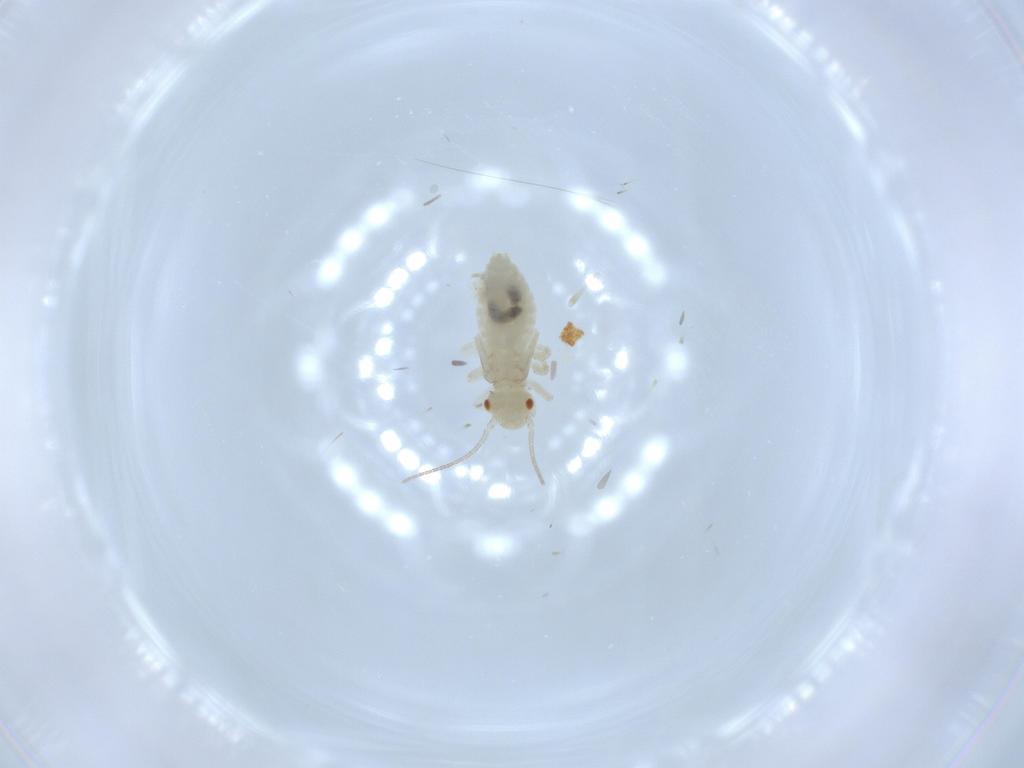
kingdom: Animalia
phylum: Arthropoda
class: Insecta
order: Psocodea
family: Caeciliusidae
